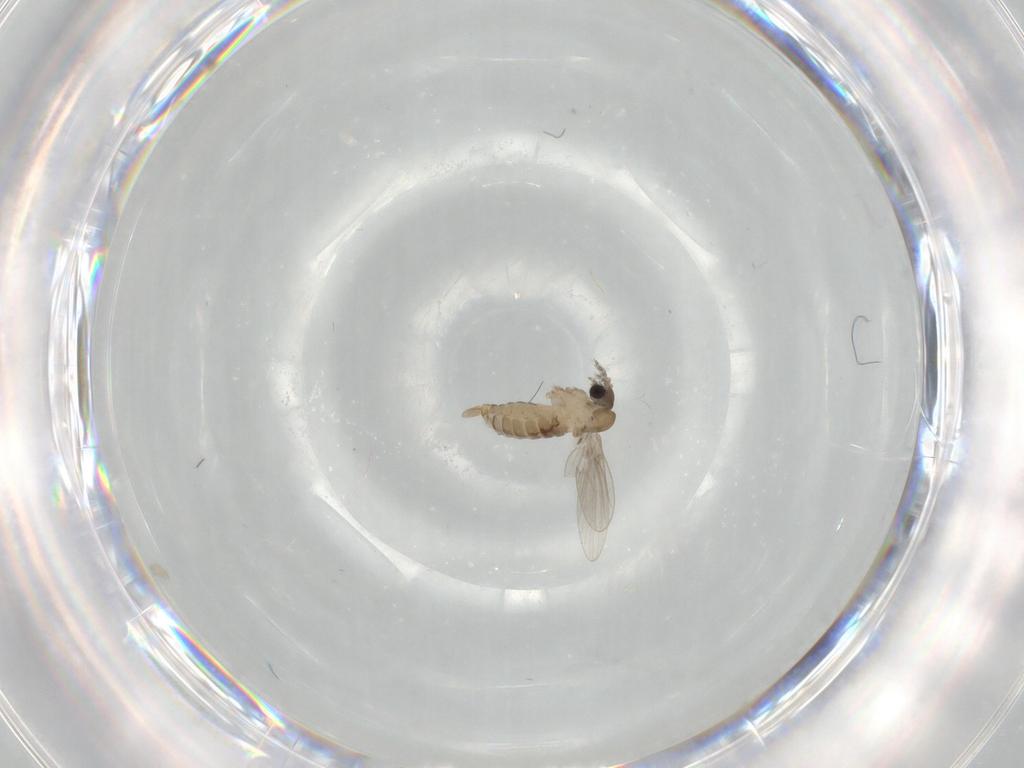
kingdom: Animalia
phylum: Arthropoda
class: Insecta
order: Diptera
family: Psychodidae
